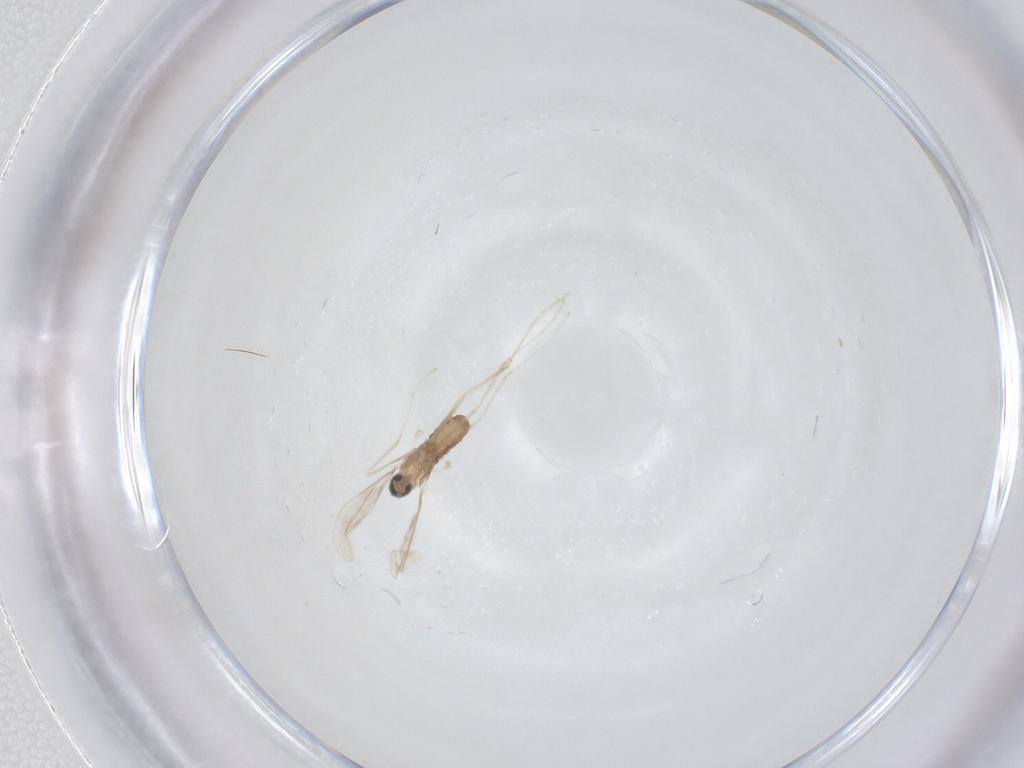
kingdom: Animalia
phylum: Arthropoda
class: Insecta
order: Diptera
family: Cecidomyiidae
